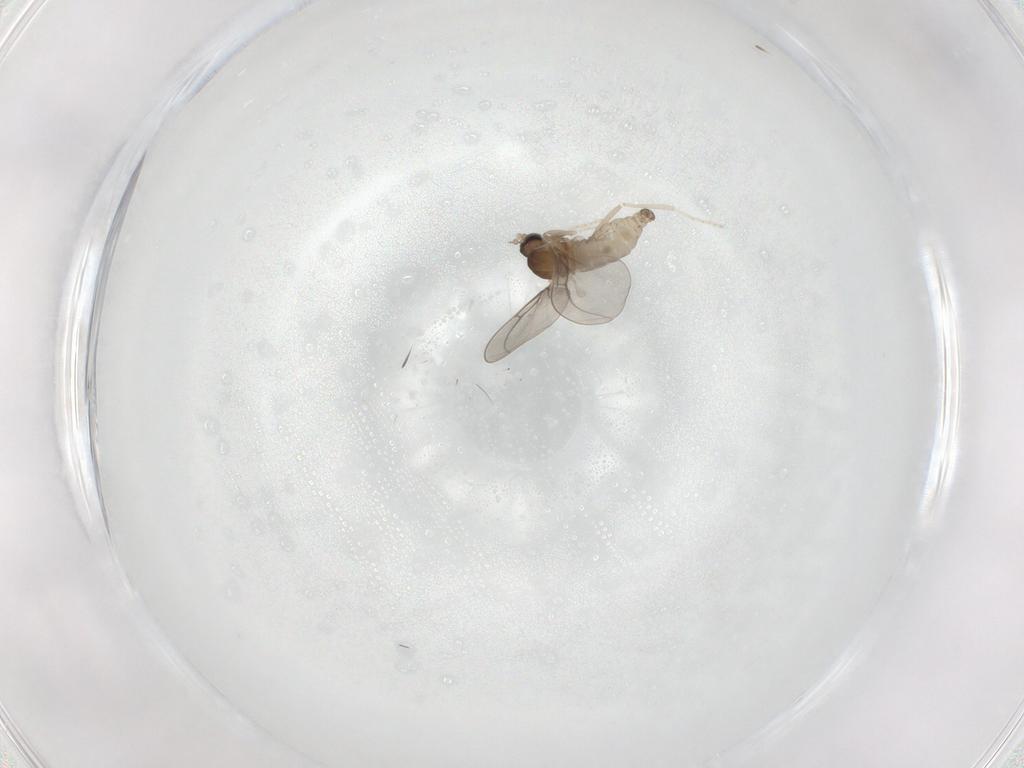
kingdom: Animalia
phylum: Arthropoda
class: Insecta
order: Diptera
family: Cecidomyiidae
